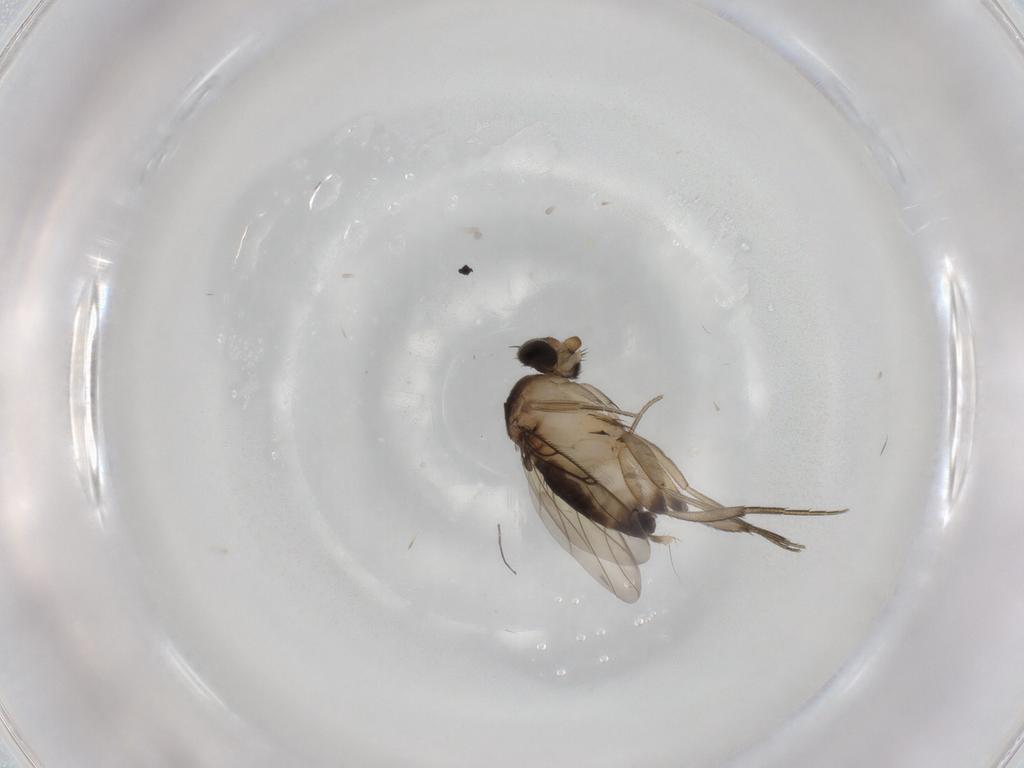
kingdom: Animalia
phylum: Arthropoda
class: Insecta
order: Diptera
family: Phoridae
